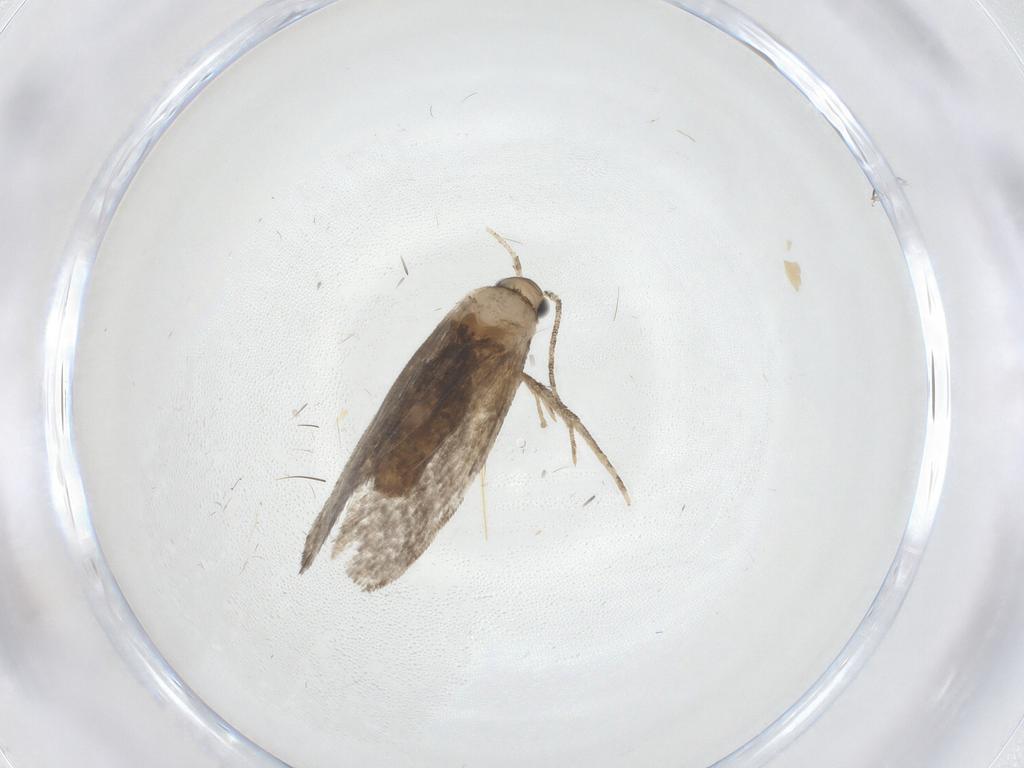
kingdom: Animalia
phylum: Arthropoda
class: Insecta
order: Lepidoptera
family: Tineidae
